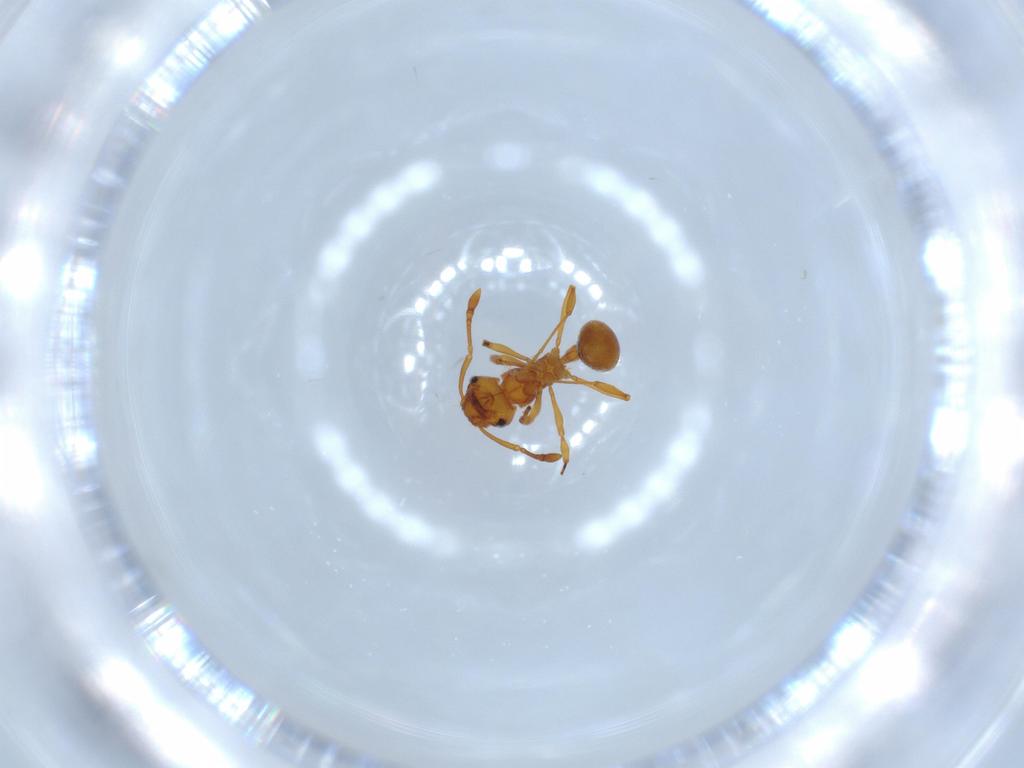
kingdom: Animalia
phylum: Arthropoda
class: Insecta
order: Hymenoptera
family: Formicidae
